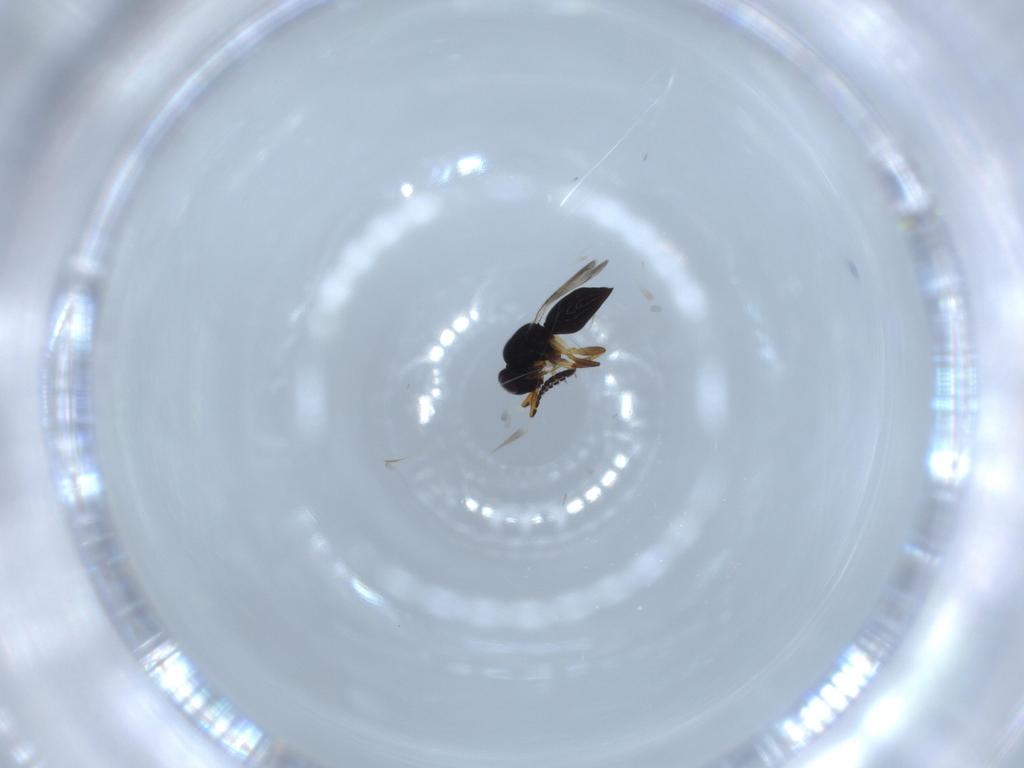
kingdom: Animalia
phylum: Arthropoda
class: Insecta
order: Hymenoptera
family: Ceraphronidae
